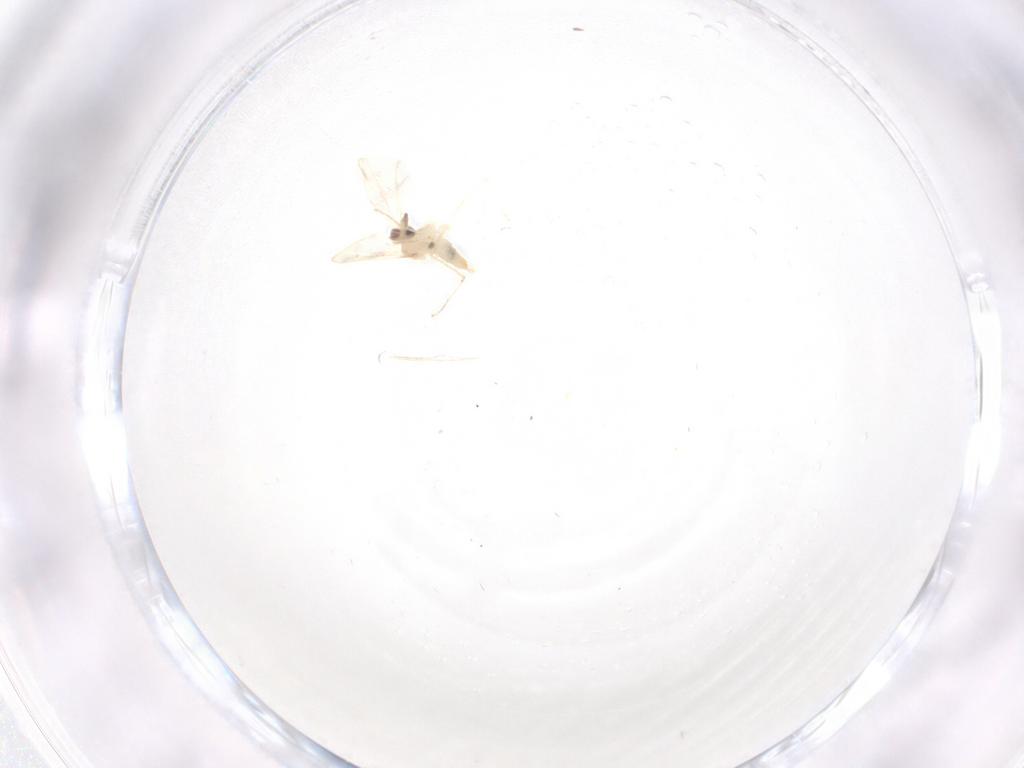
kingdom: Animalia
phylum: Arthropoda
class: Insecta
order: Diptera
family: Cecidomyiidae
